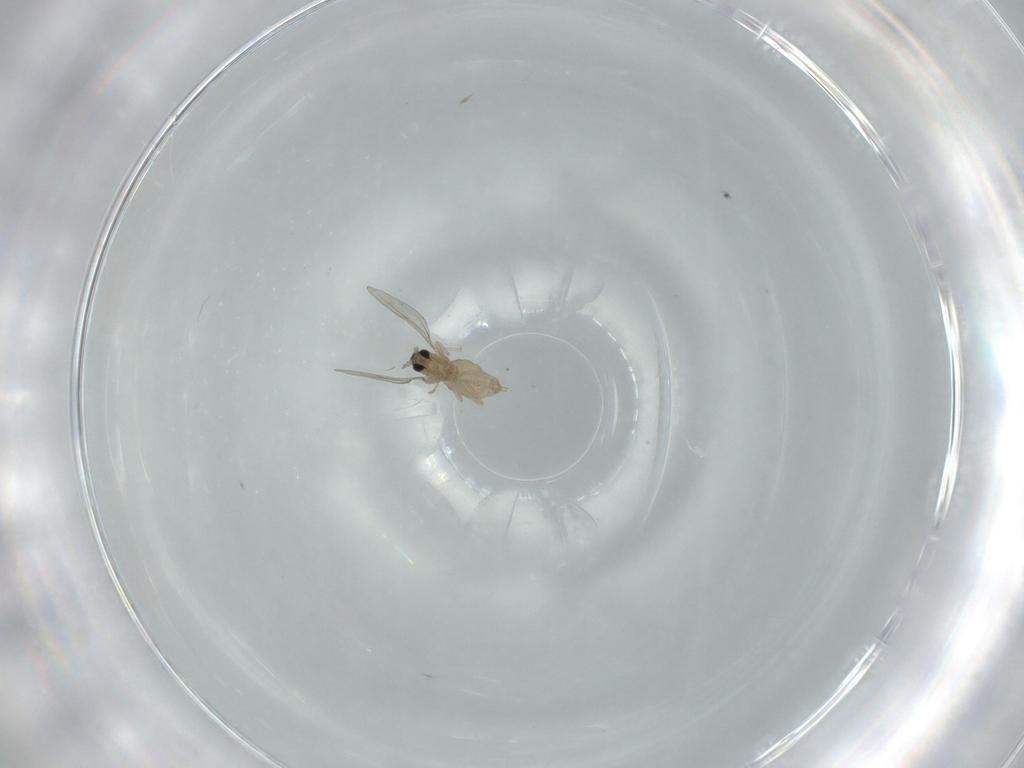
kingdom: Animalia
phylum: Arthropoda
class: Insecta
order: Diptera
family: Cecidomyiidae
